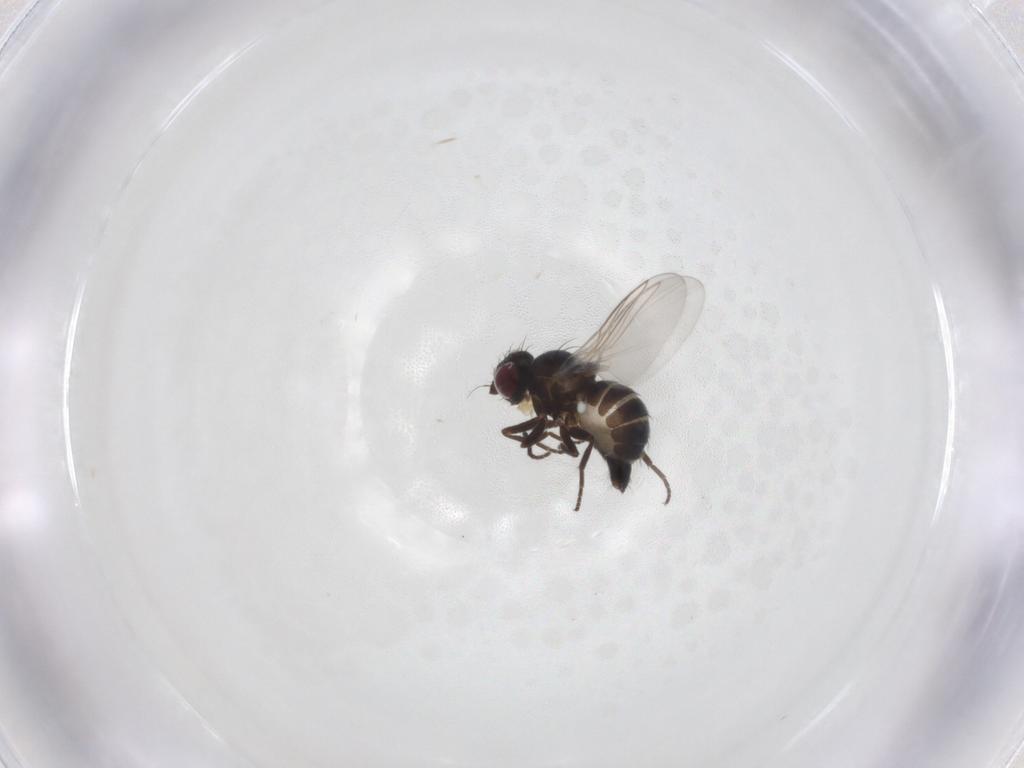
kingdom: Animalia
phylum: Arthropoda
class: Insecta
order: Diptera
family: Agromyzidae
